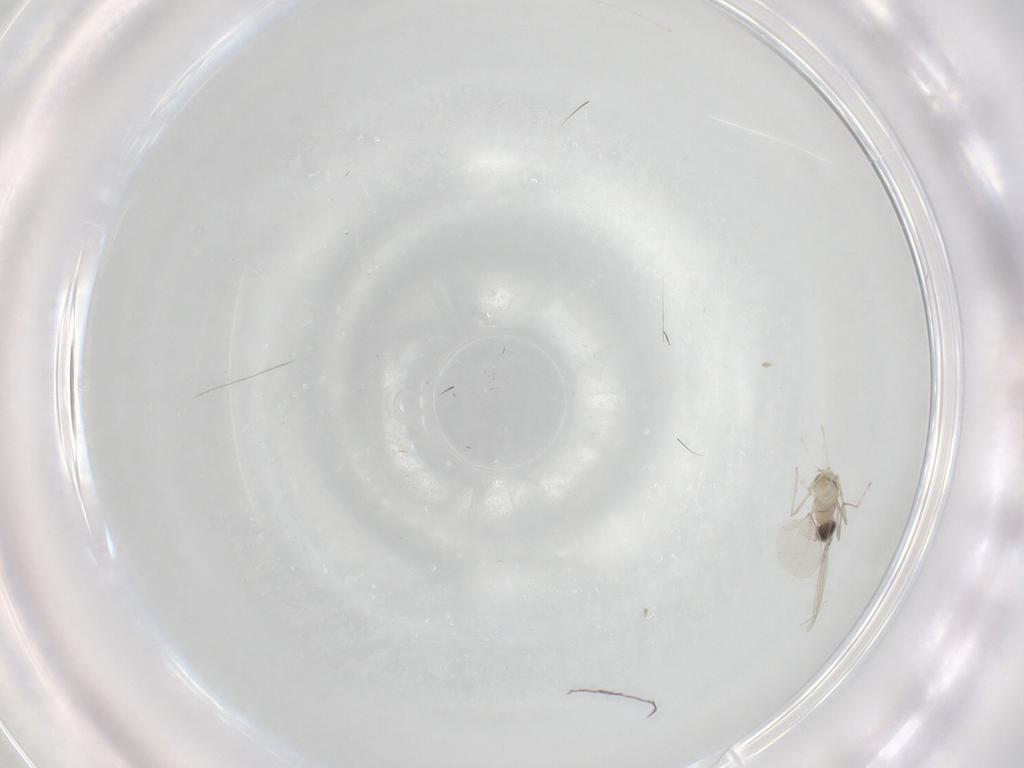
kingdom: Animalia
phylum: Arthropoda
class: Insecta
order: Diptera
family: Cecidomyiidae
